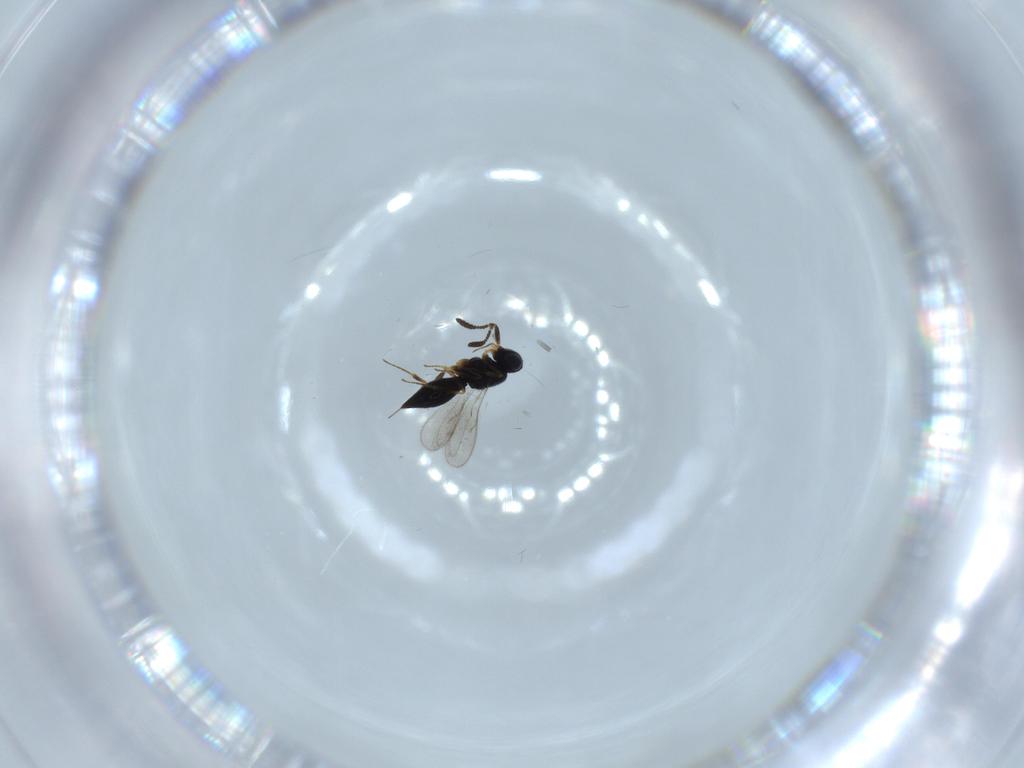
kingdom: Animalia
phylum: Arthropoda
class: Insecta
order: Hymenoptera
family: Scelionidae
